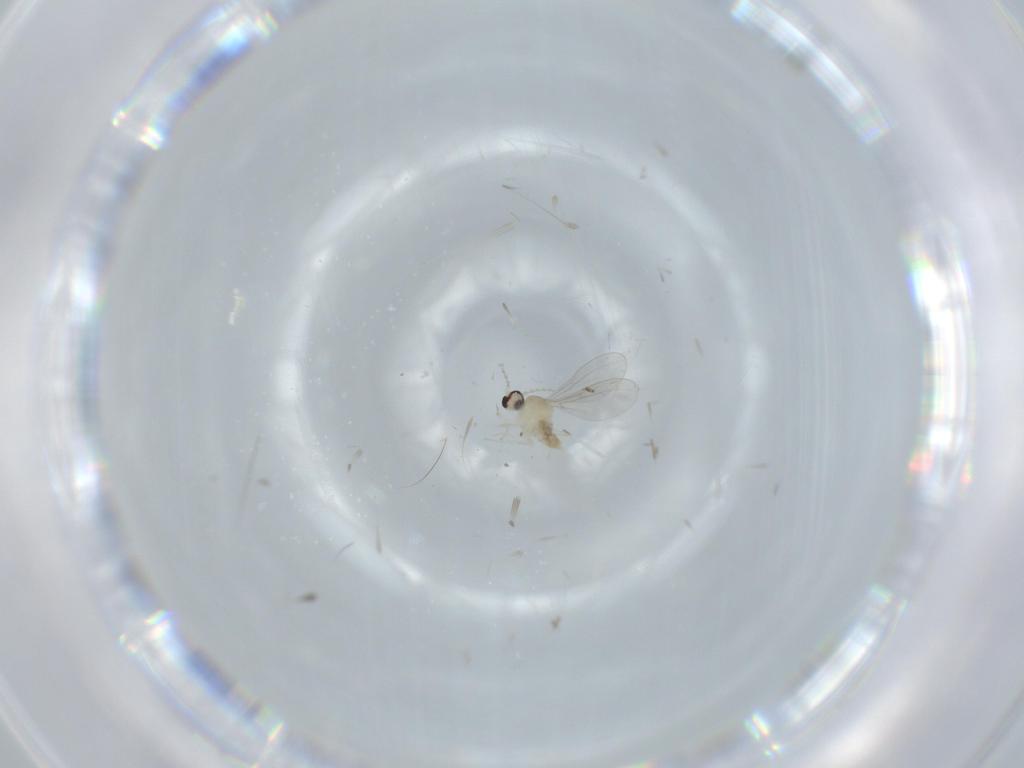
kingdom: Animalia
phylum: Arthropoda
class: Insecta
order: Diptera
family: Cecidomyiidae
